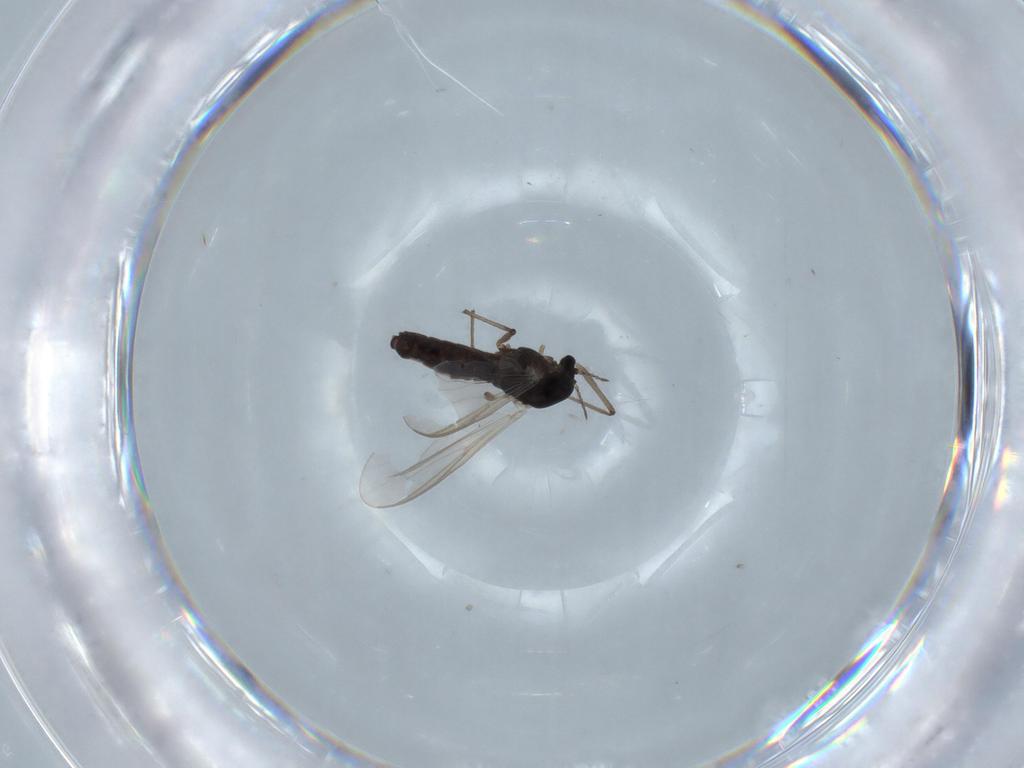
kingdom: Animalia
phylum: Arthropoda
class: Insecta
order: Diptera
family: Chironomidae
